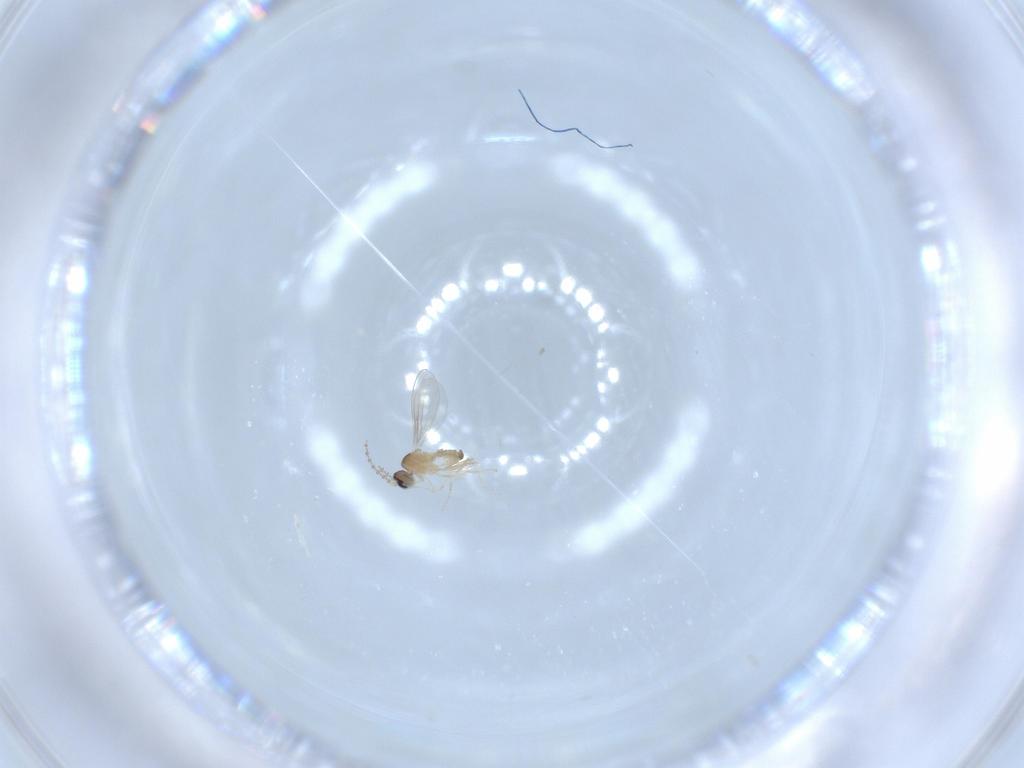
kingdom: Animalia
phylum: Arthropoda
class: Insecta
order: Diptera
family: Cecidomyiidae
